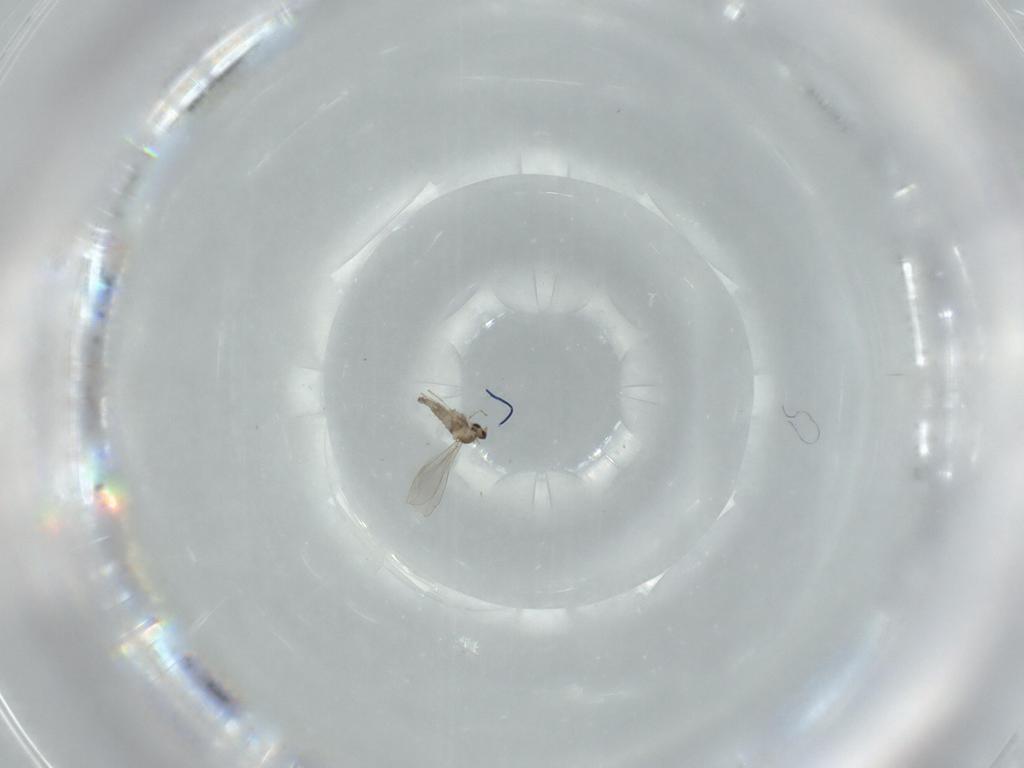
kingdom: Animalia
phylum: Arthropoda
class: Insecta
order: Diptera
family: Cecidomyiidae
